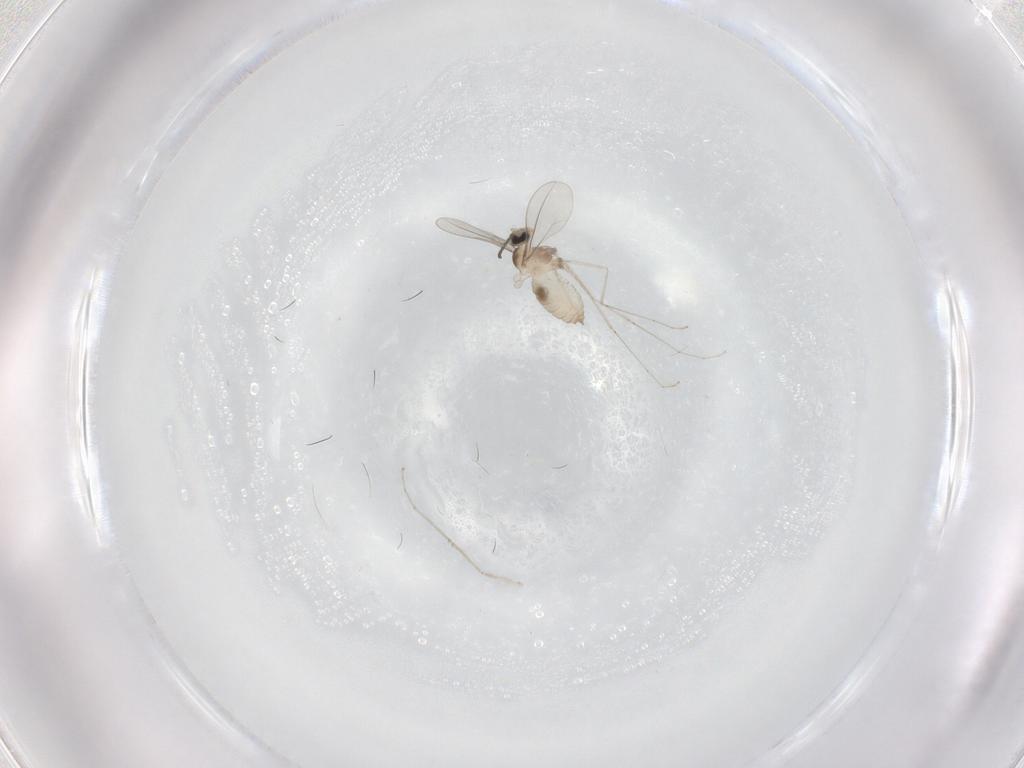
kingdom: Animalia
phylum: Arthropoda
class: Insecta
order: Diptera
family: Cecidomyiidae
